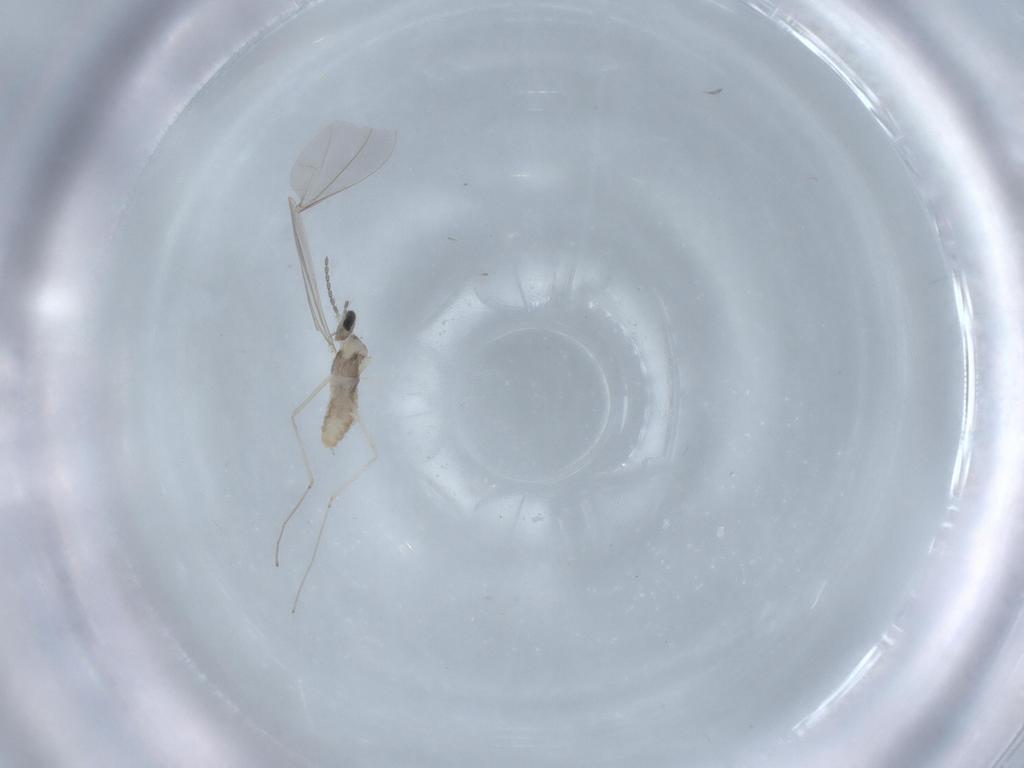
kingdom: Animalia
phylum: Arthropoda
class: Insecta
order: Diptera
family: Cecidomyiidae
